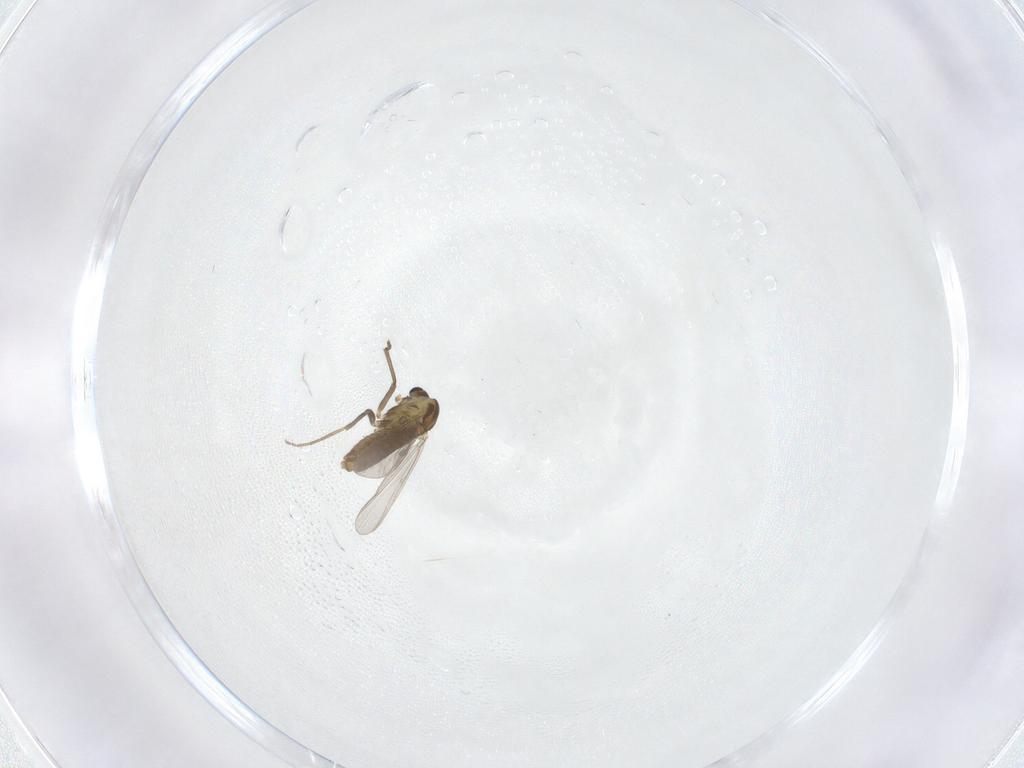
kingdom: Animalia
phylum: Arthropoda
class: Insecta
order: Diptera
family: Chironomidae
